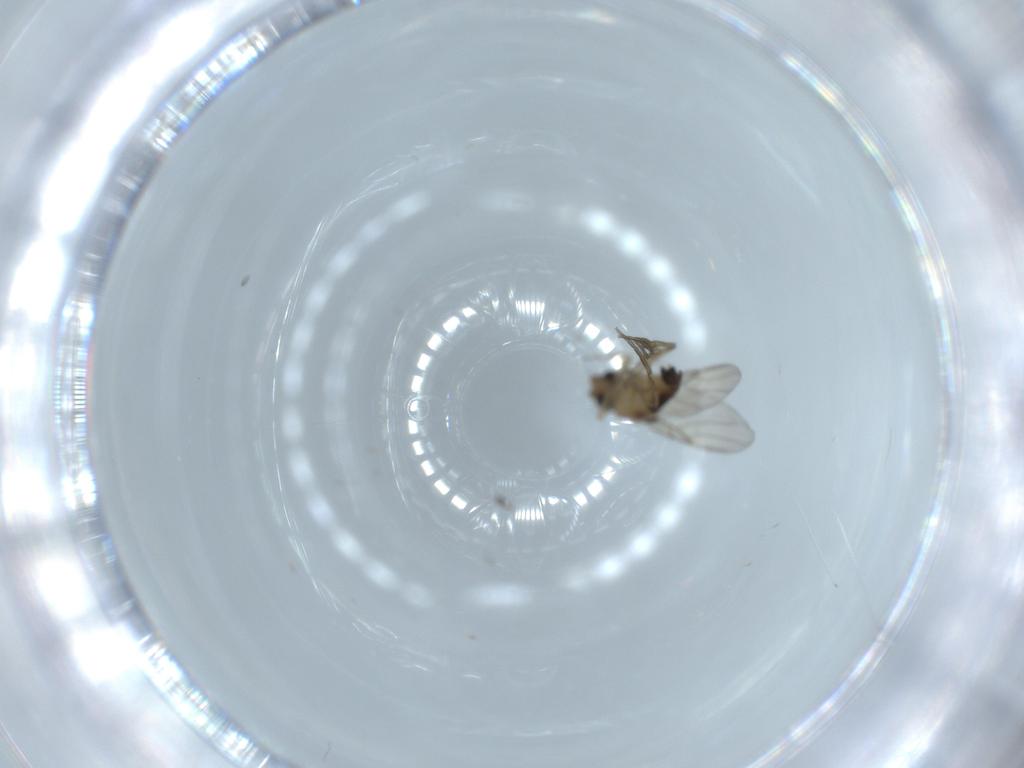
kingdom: Animalia
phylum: Arthropoda
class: Insecta
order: Diptera
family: Phoridae
